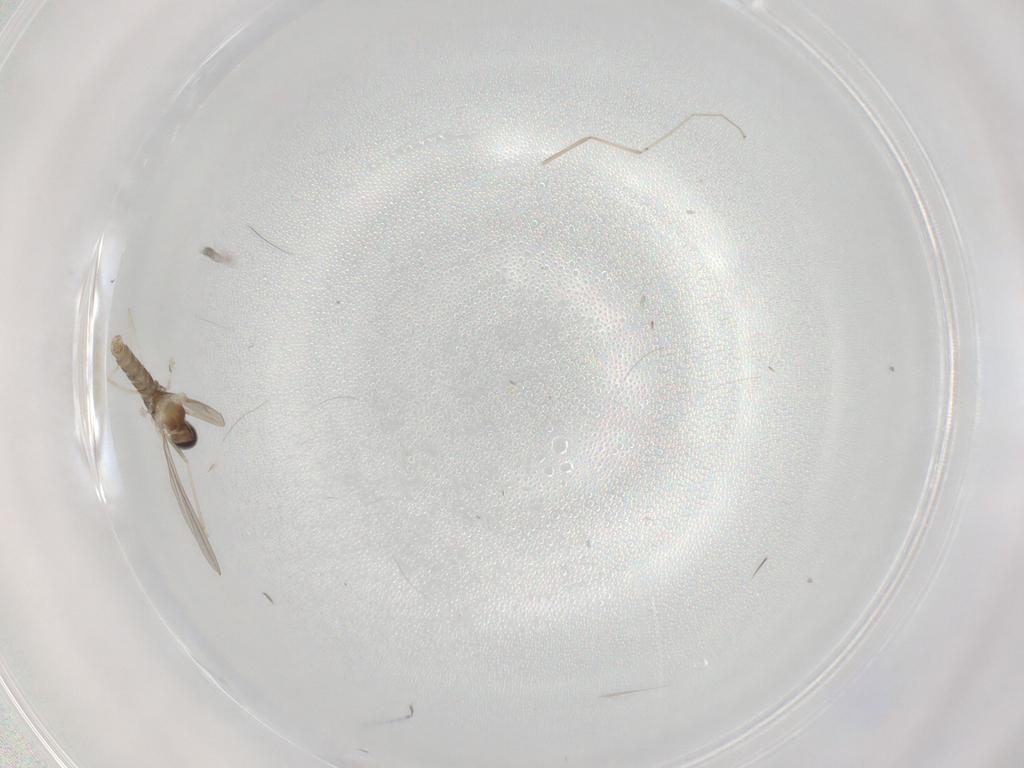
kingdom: Animalia
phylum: Arthropoda
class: Insecta
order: Diptera
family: Cecidomyiidae
